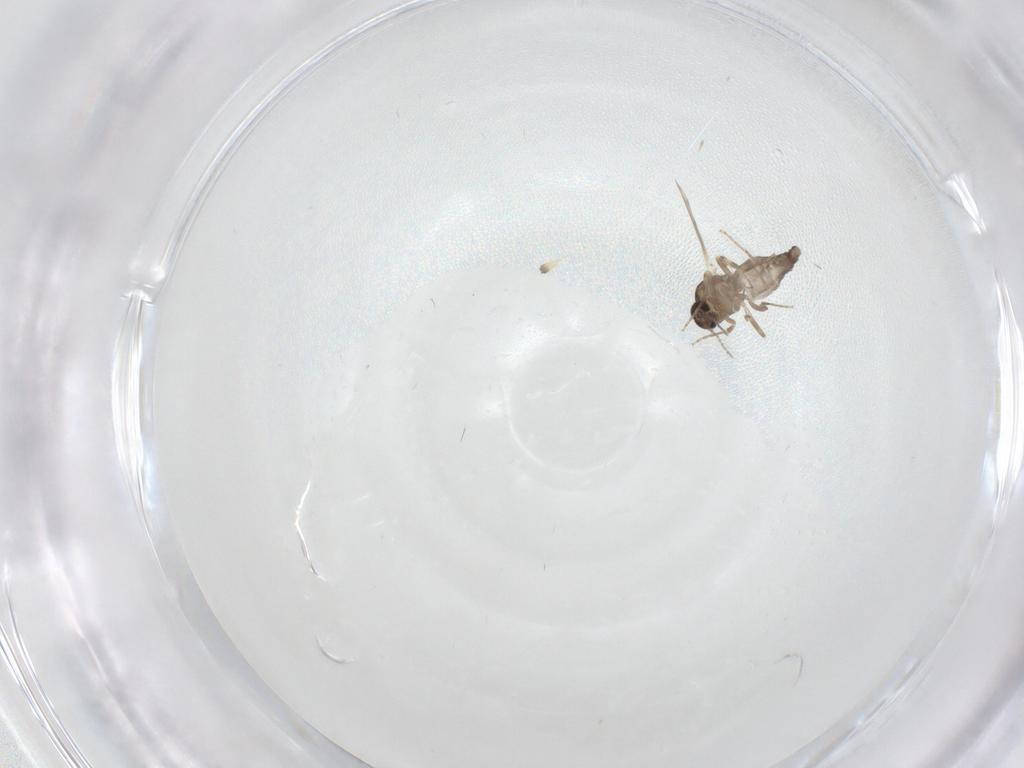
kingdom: Animalia
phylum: Arthropoda
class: Insecta
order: Diptera
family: Ceratopogonidae
